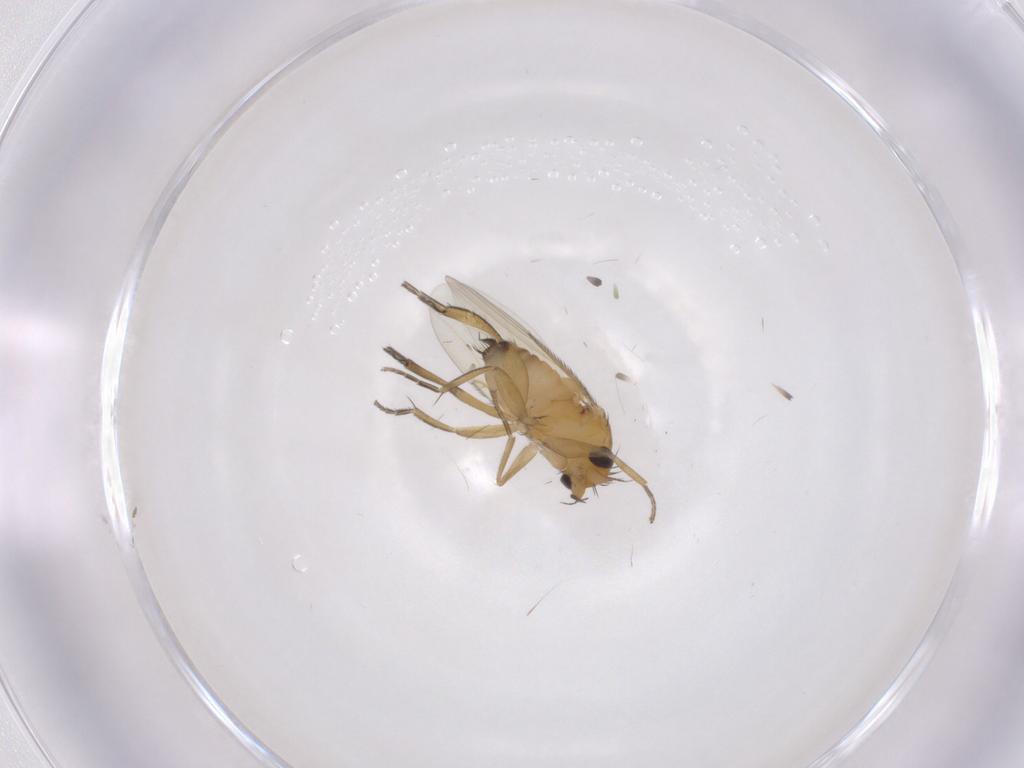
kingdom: Animalia
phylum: Arthropoda
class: Insecta
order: Diptera
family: Phoridae
